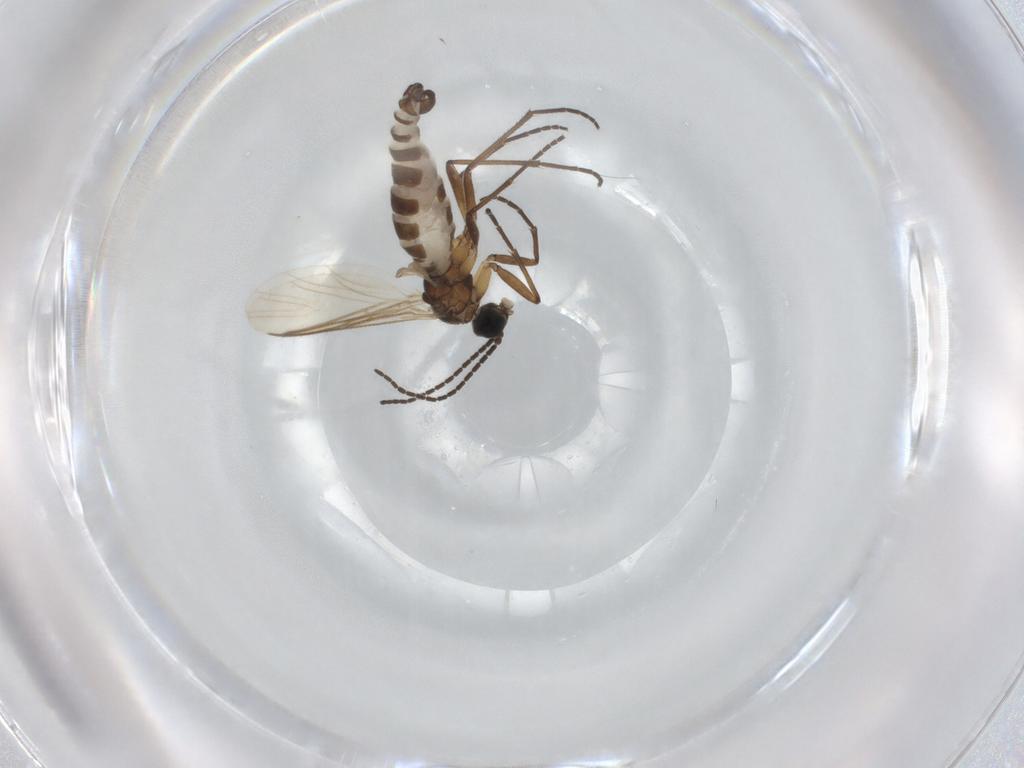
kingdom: Animalia
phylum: Arthropoda
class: Insecta
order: Diptera
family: Sciaridae
